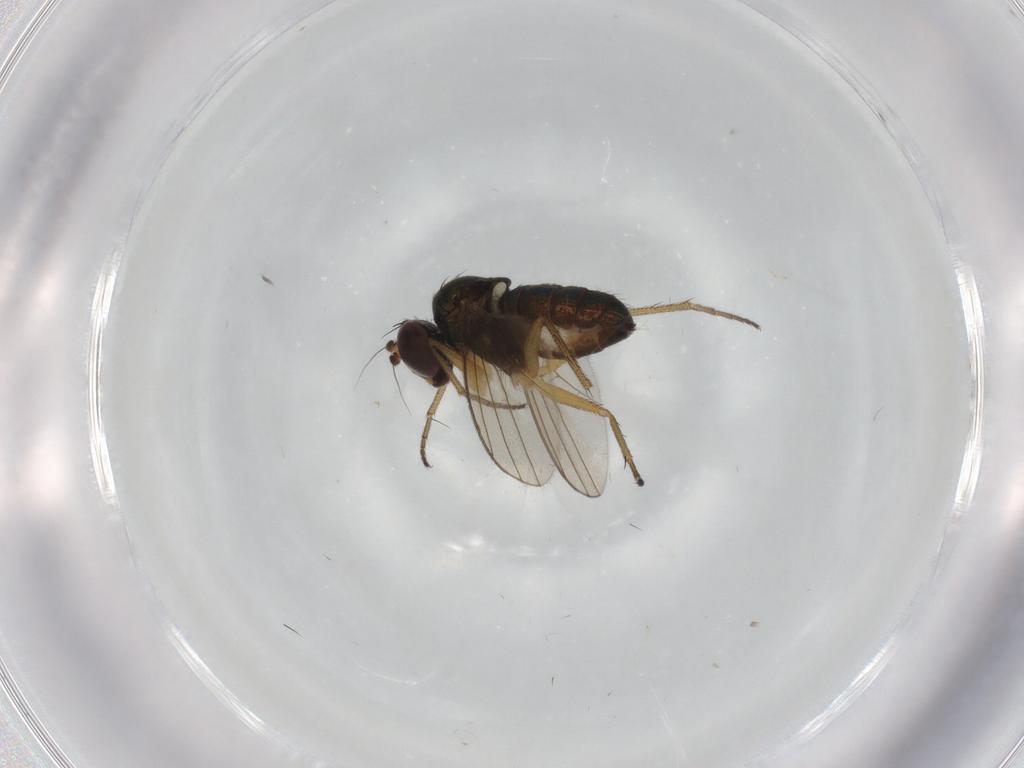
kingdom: Animalia
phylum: Arthropoda
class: Insecta
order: Diptera
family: Dolichopodidae
